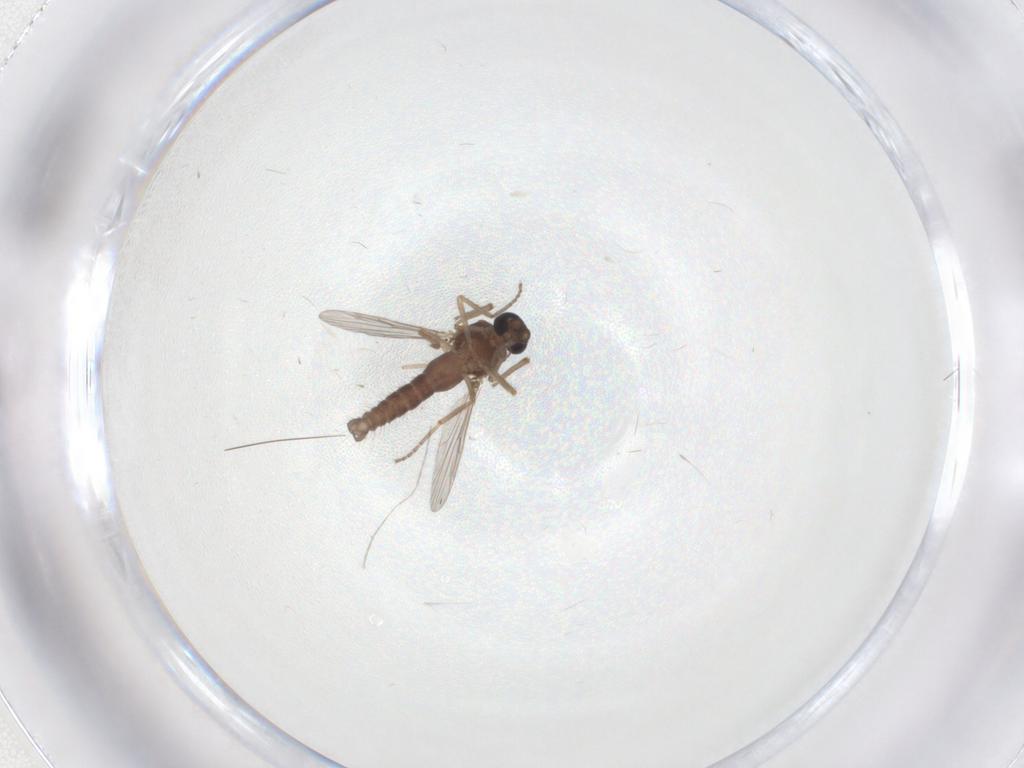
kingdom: Animalia
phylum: Arthropoda
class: Insecta
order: Diptera
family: Ceratopogonidae
